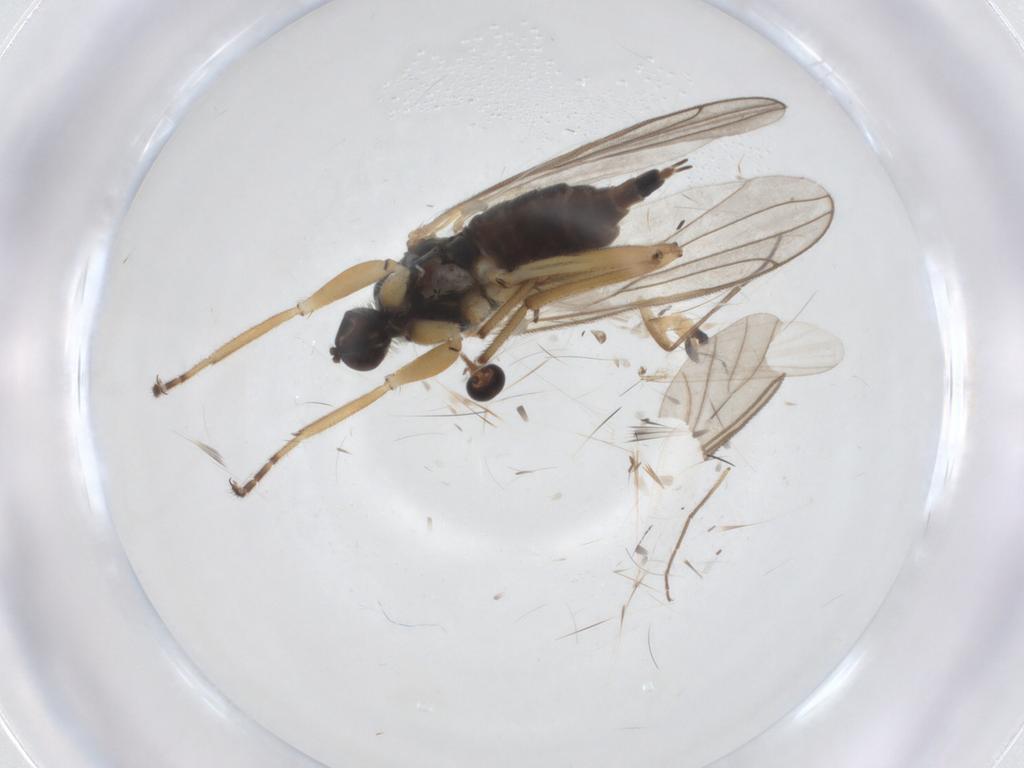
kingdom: Animalia
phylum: Arthropoda
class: Insecta
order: Diptera
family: Hybotidae
